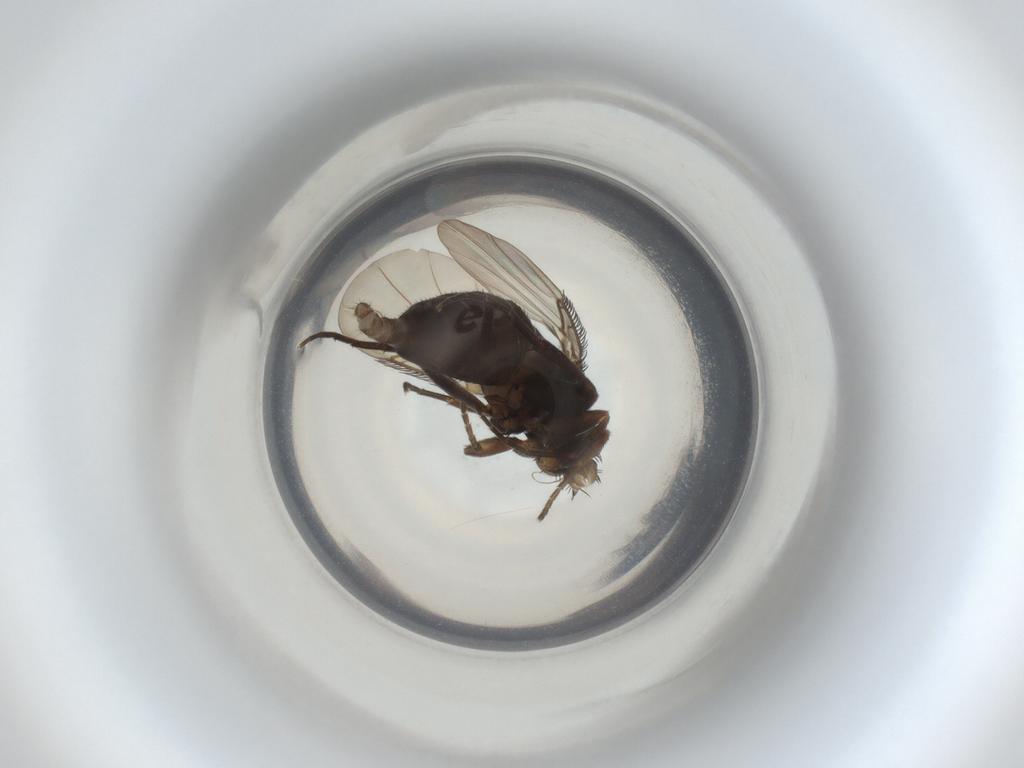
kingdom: Animalia
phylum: Arthropoda
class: Insecta
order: Diptera
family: Phoridae
